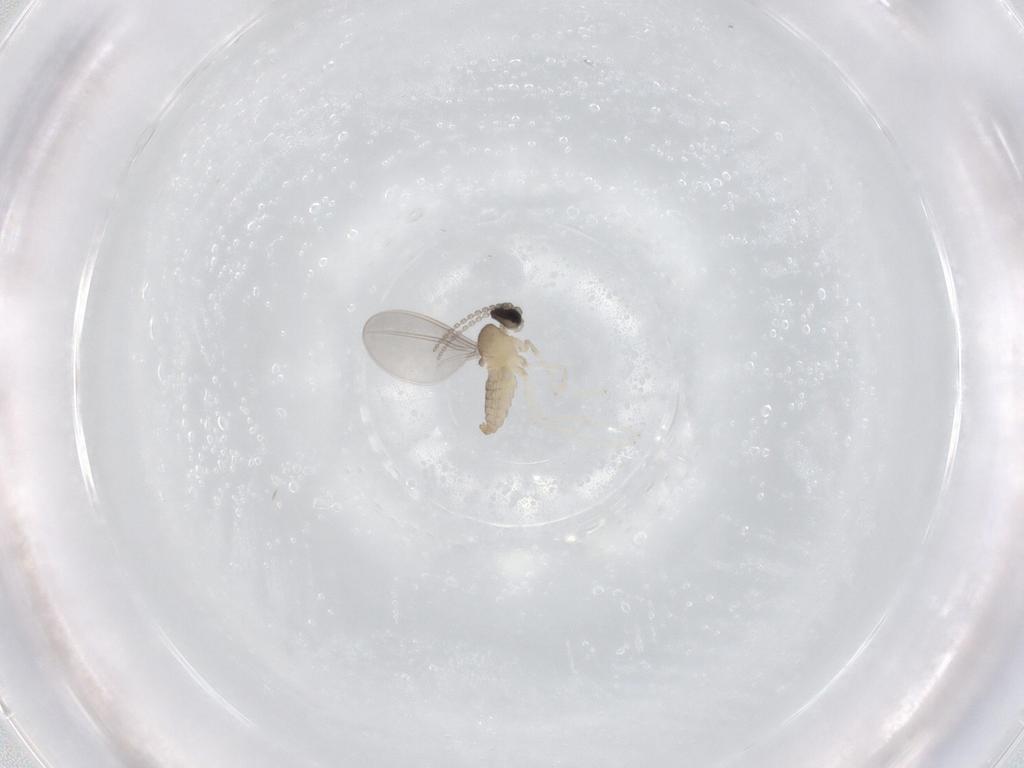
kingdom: Animalia
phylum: Arthropoda
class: Insecta
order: Diptera
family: Cecidomyiidae
